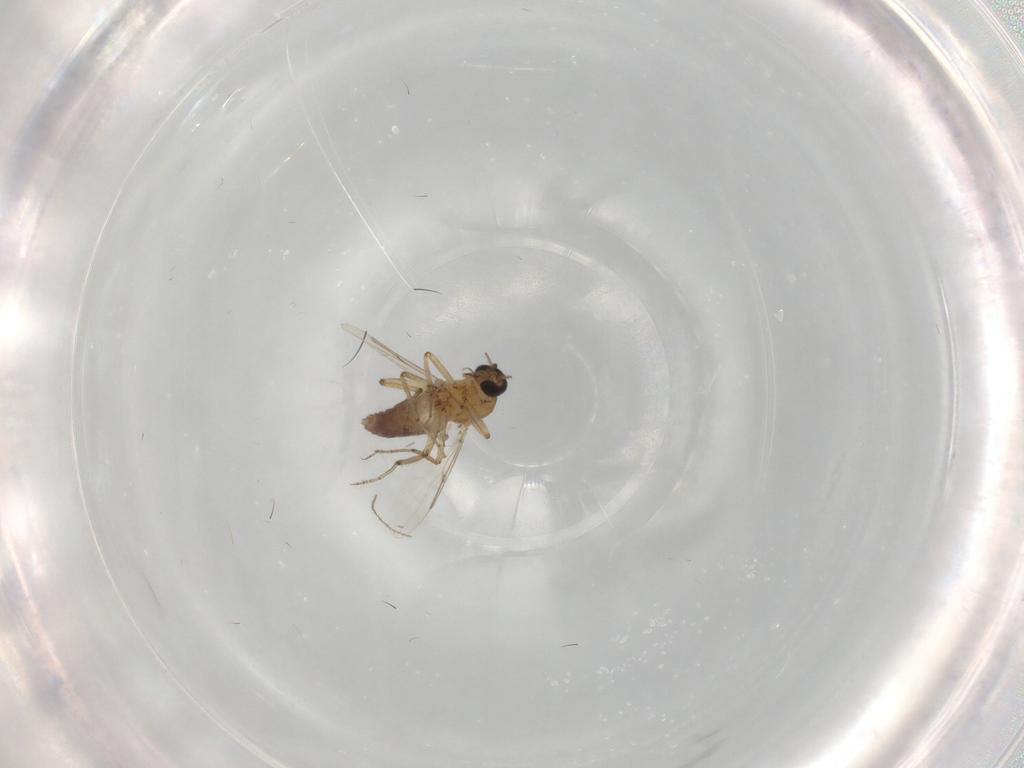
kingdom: Animalia
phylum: Arthropoda
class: Insecta
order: Diptera
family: Ceratopogonidae
